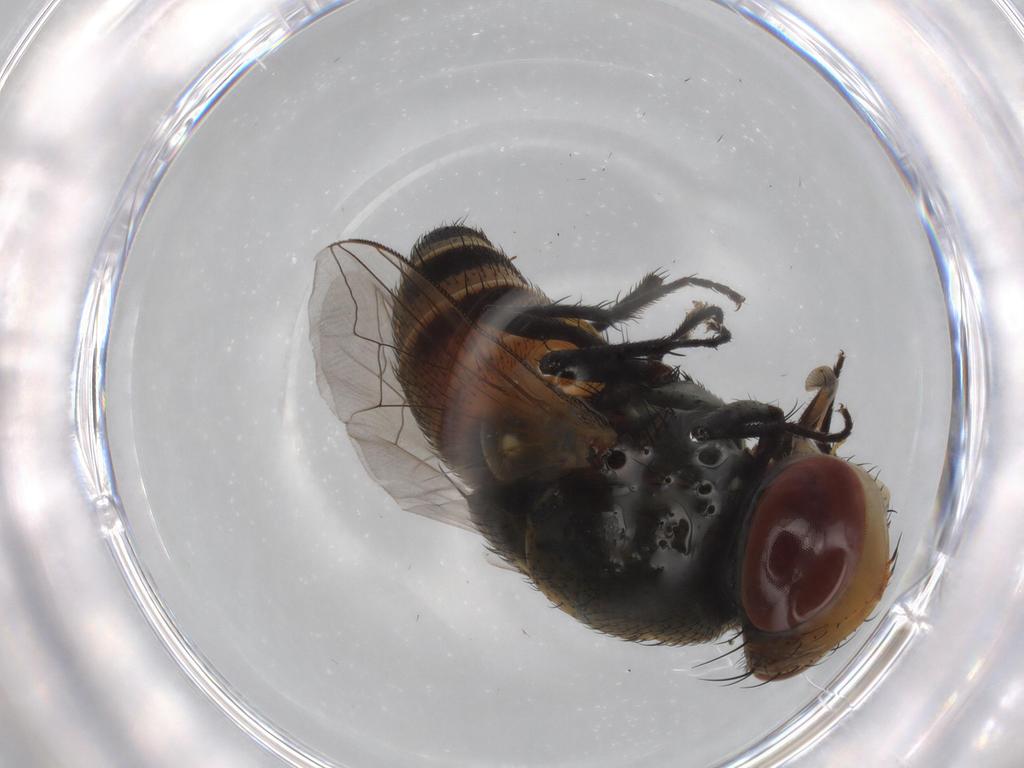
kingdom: Animalia
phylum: Arthropoda
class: Insecta
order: Diptera
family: Sarcophagidae
